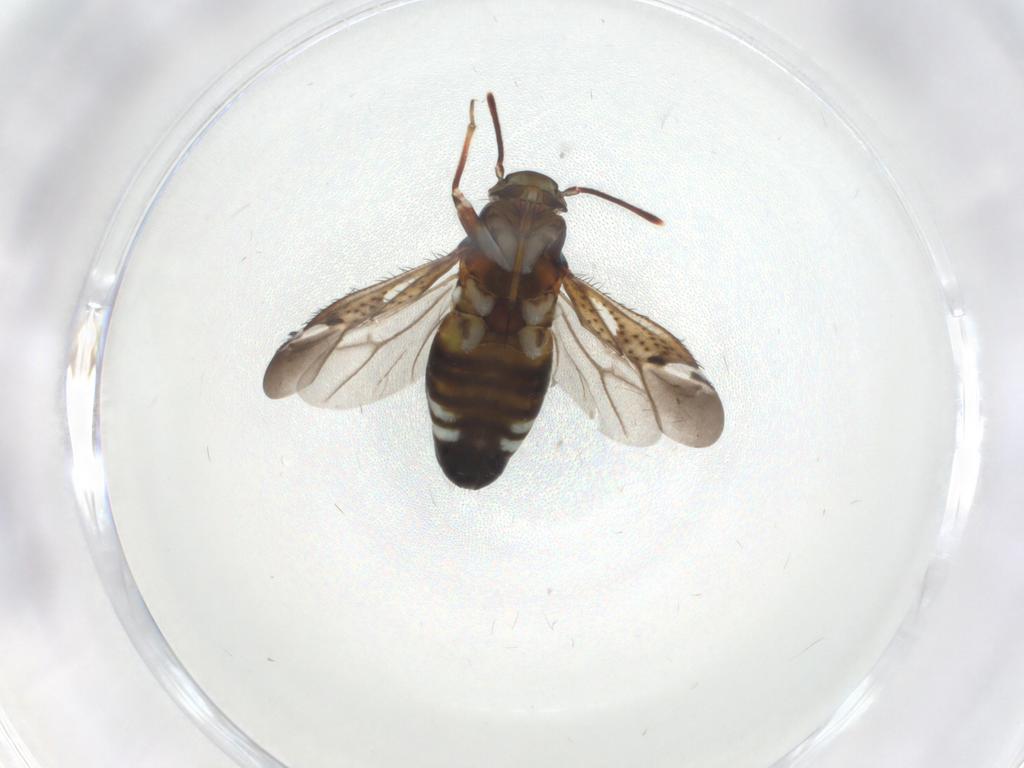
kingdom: Animalia
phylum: Arthropoda
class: Insecta
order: Hemiptera
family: Miridae
